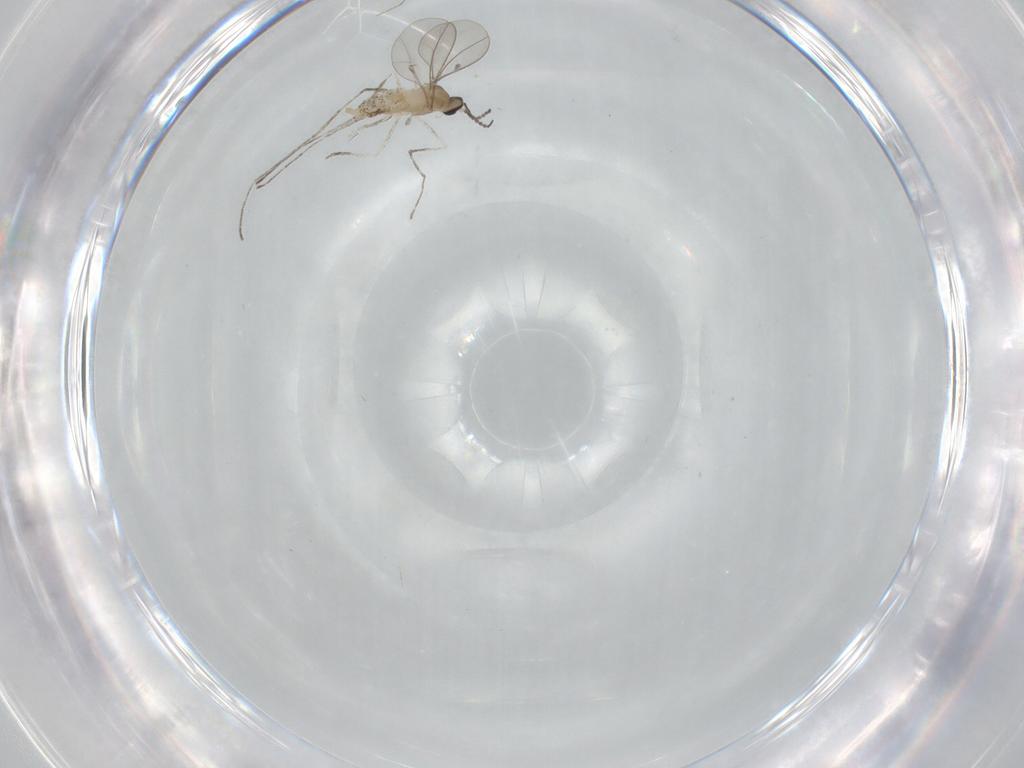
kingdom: Animalia
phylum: Arthropoda
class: Insecta
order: Diptera
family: Cecidomyiidae
